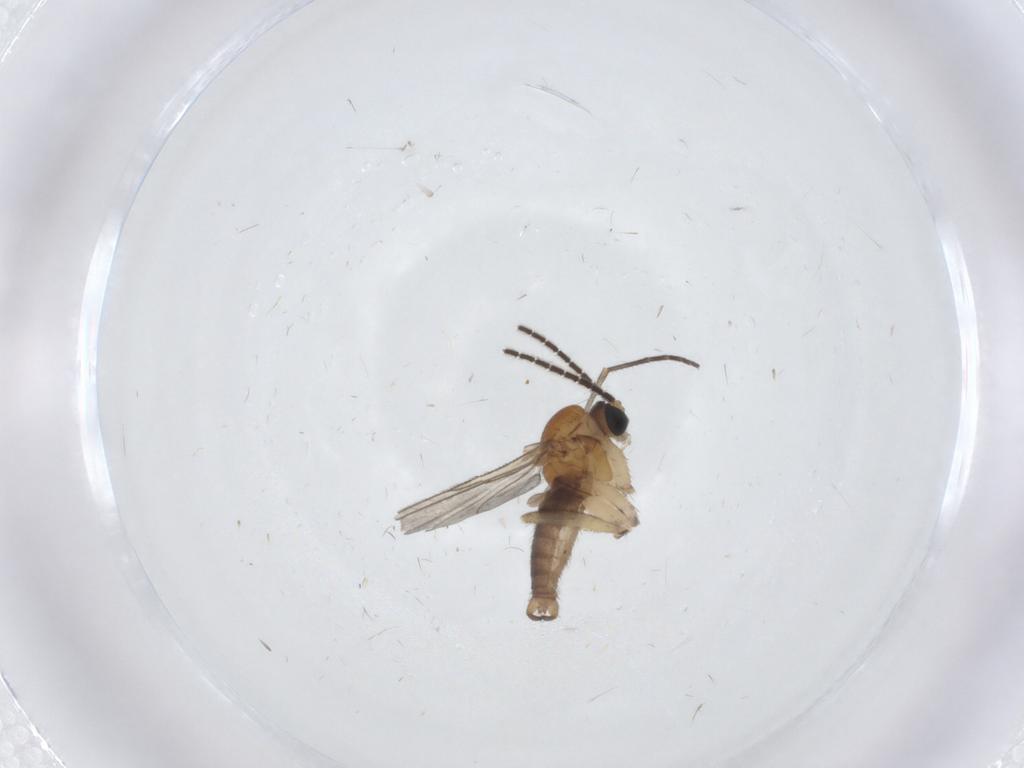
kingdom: Animalia
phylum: Arthropoda
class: Insecta
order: Diptera
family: Sciaridae
